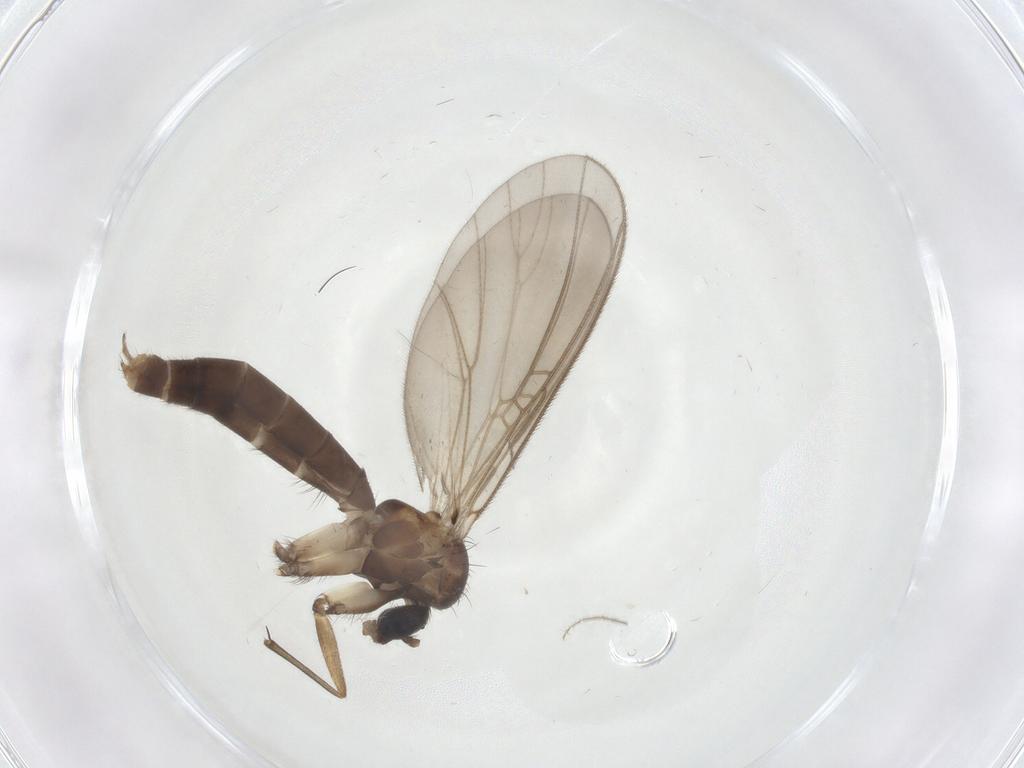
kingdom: Animalia
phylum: Arthropoda
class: Insecta
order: Diptera
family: Mycetophilidae
